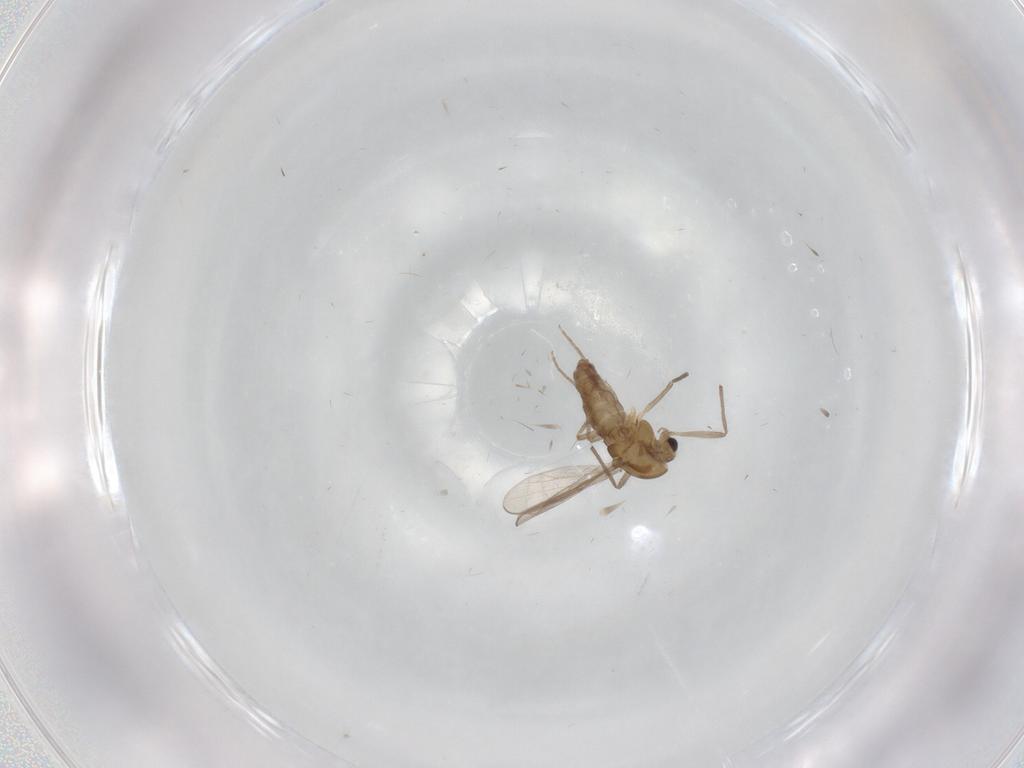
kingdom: Animalia
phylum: Arthropoda
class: Insecta
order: Diptera
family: Chironomidae
